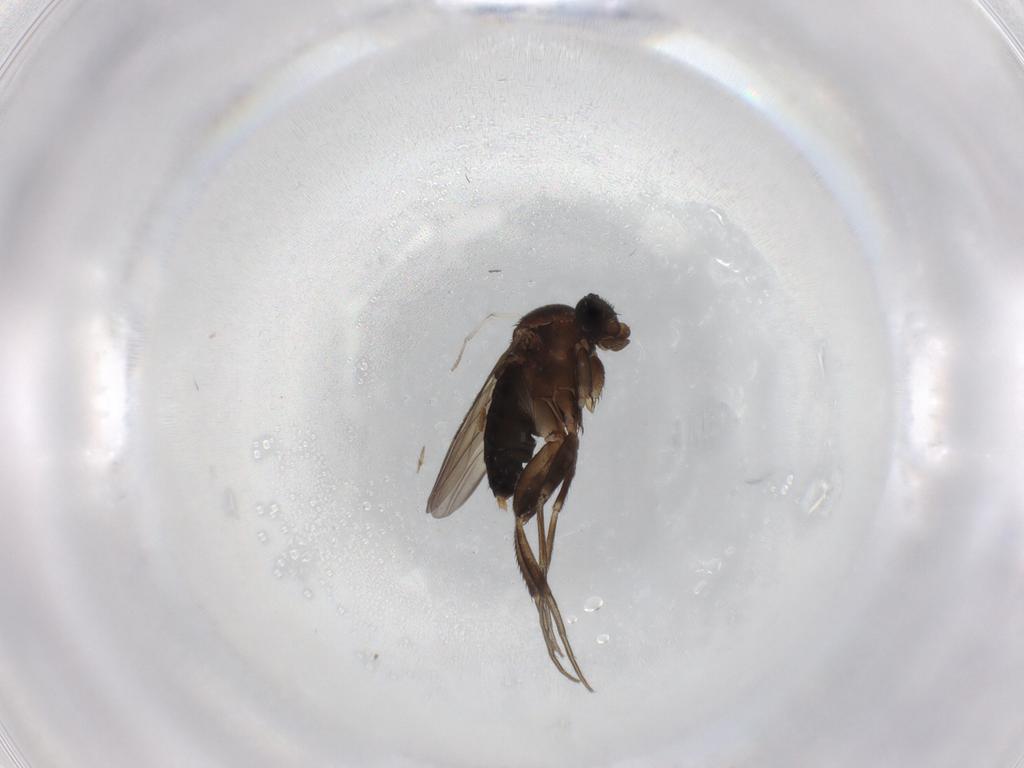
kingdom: Animalia
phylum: Arthropoda
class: Insecta
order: Diptera
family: Phoridae
